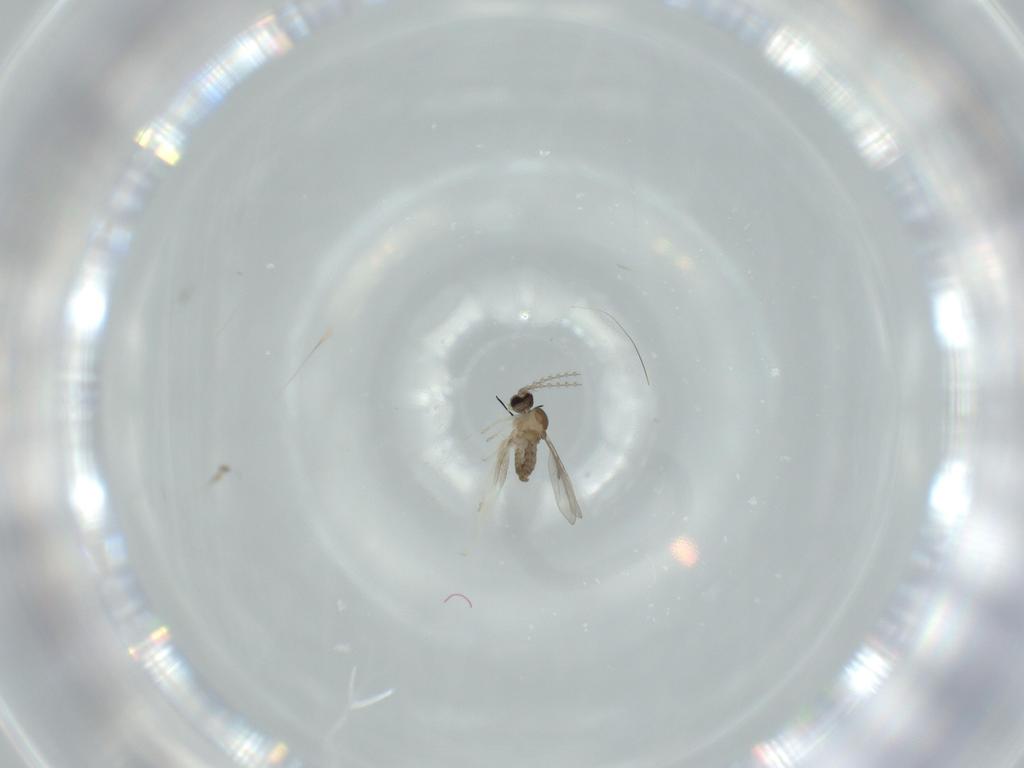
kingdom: Animalia
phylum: Arthropoda
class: Insecta
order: Diptera
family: Cecidomyiidae
